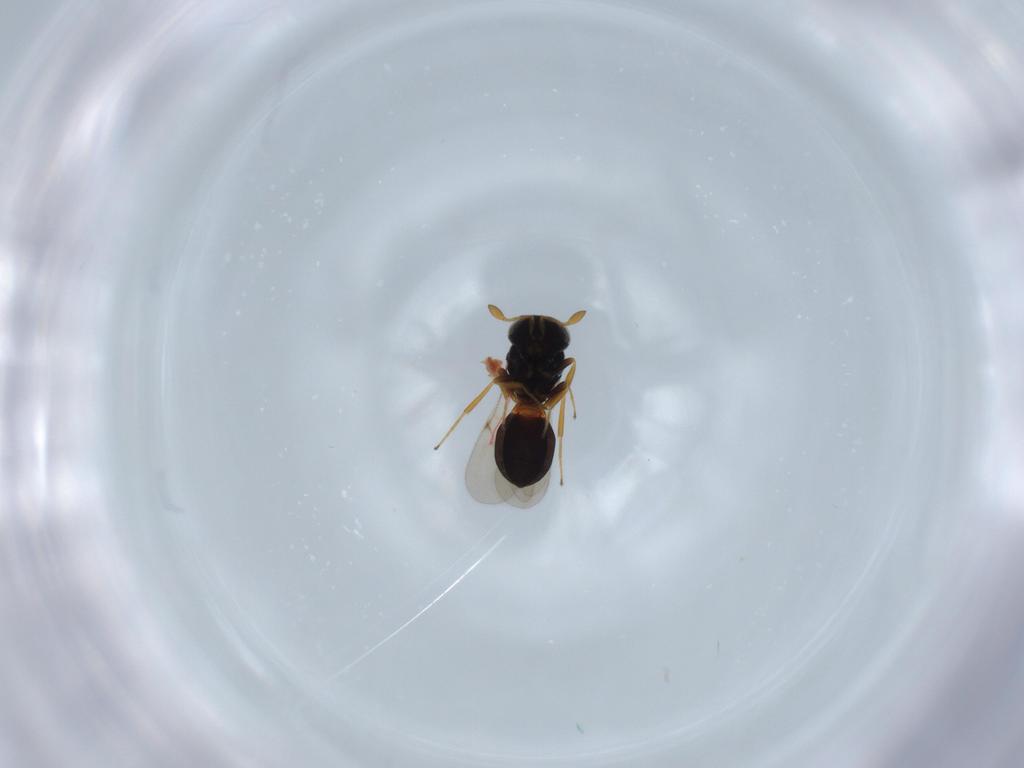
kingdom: Animalia
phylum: Arthropoda
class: Insecta
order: Hymenoptera
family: Scelionidae
